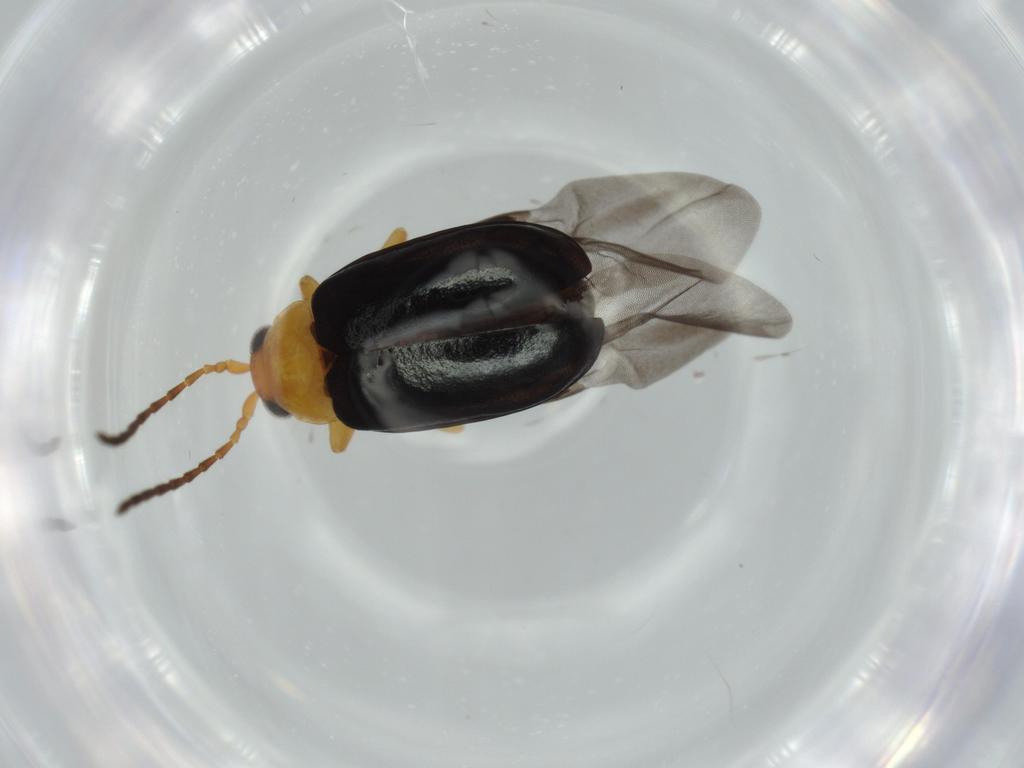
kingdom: Animalia
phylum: Arthropoda
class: Insecta
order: Coleoptera
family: Chrysomelidae
